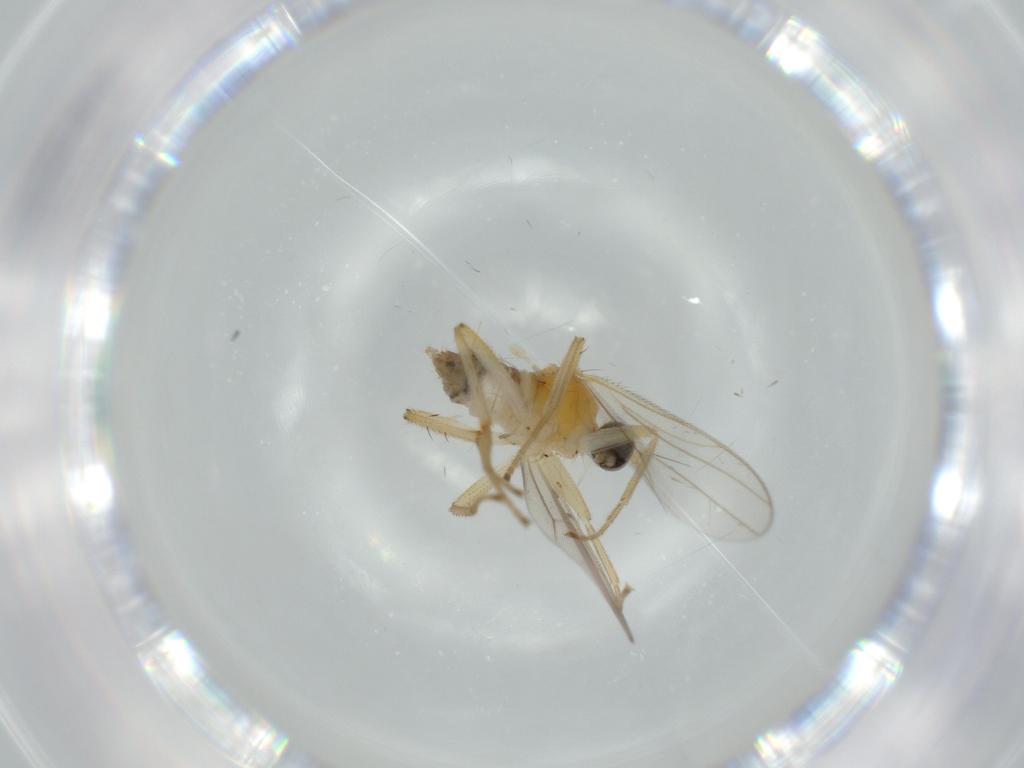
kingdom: Animalia
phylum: Arthropoda
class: Insecta
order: Diptera
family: Hybotidae
